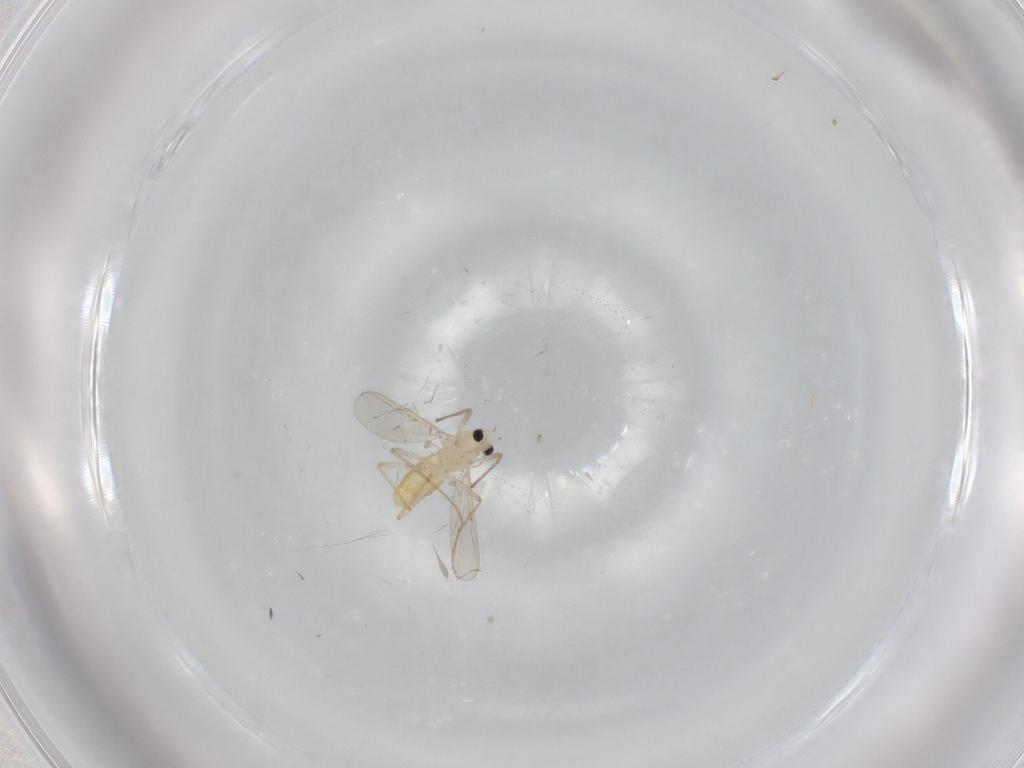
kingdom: Animalia
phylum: Arthropoda
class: Insecta
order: Diptera
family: Chironomidae
